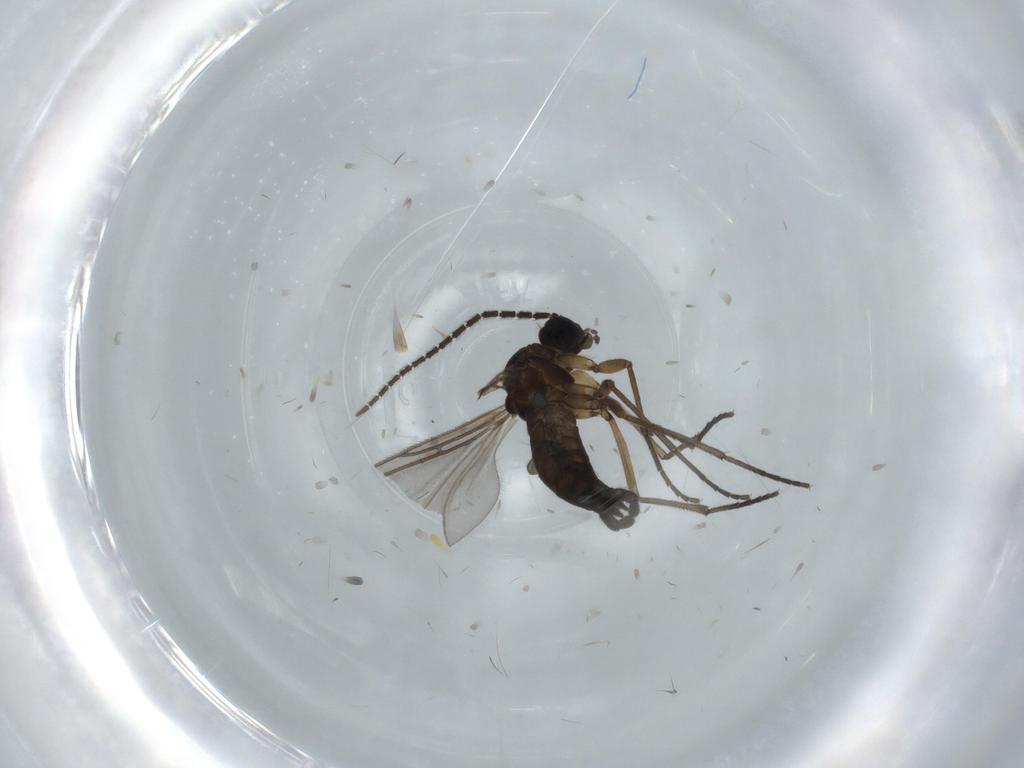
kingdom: Animalia
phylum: Arthropoda
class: Insecta
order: Diptera
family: Sciaridae
